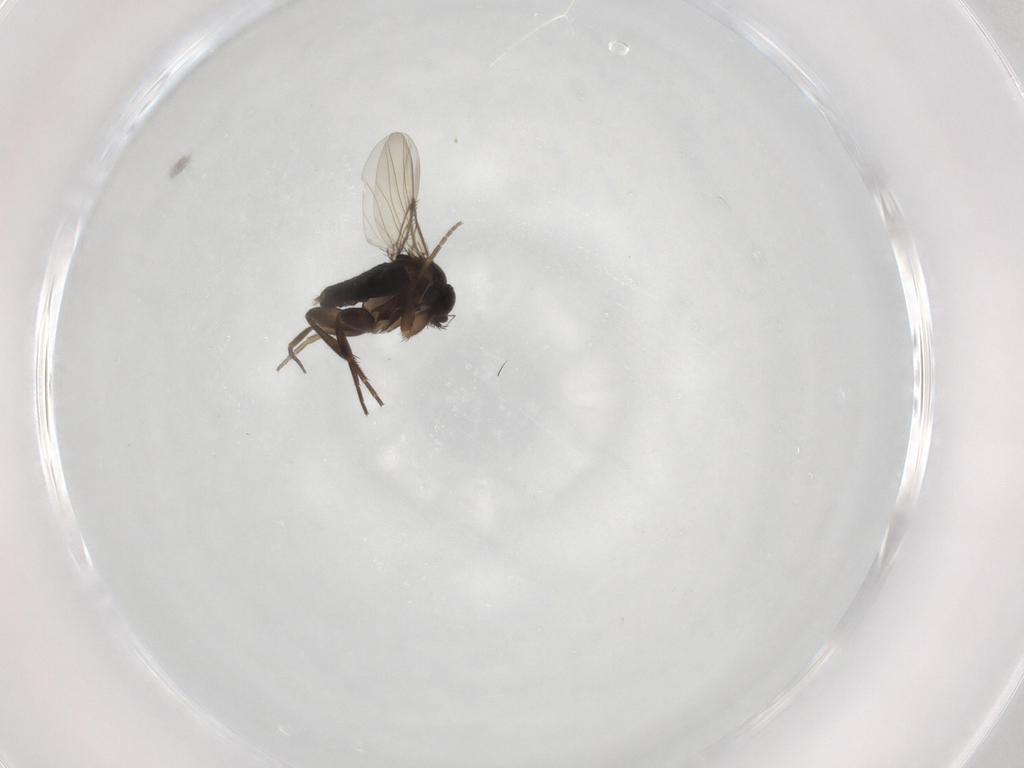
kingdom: Animalia
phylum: Arthropoda
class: Insecta
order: Diptera
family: Phoridae
